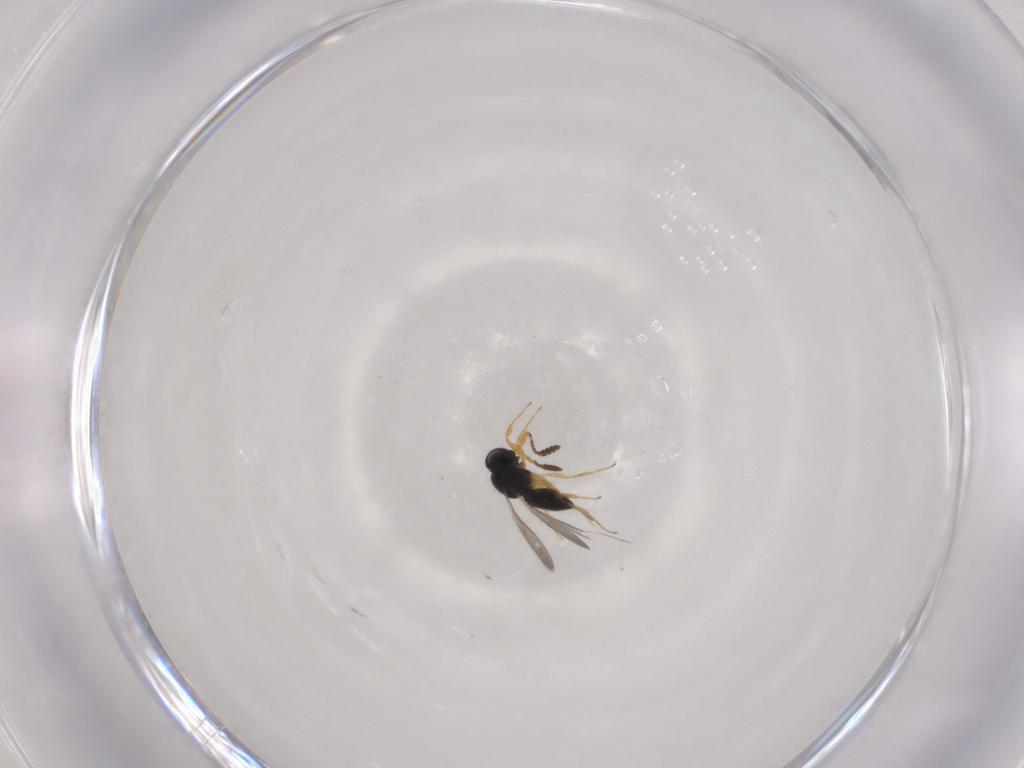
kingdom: Animalia
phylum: Arthropoda
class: Insecta
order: Hymenoptera
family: Scelionidae
